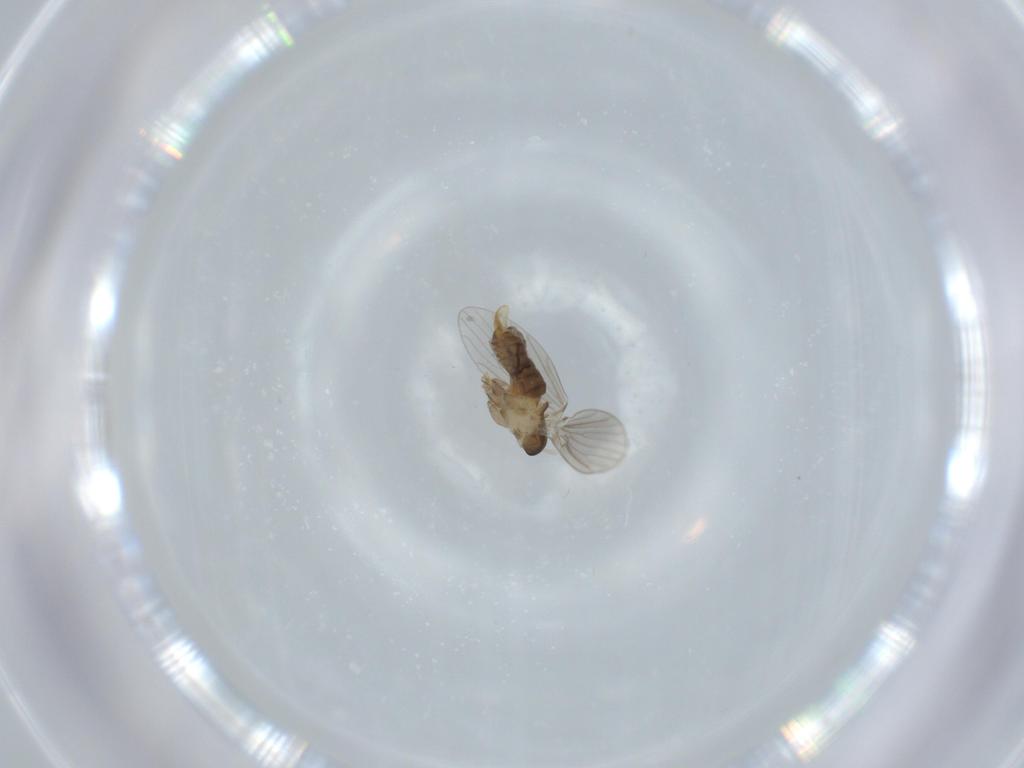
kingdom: Animalia
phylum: Arthropoda
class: Insecta
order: Diptera
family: Psychodidae
